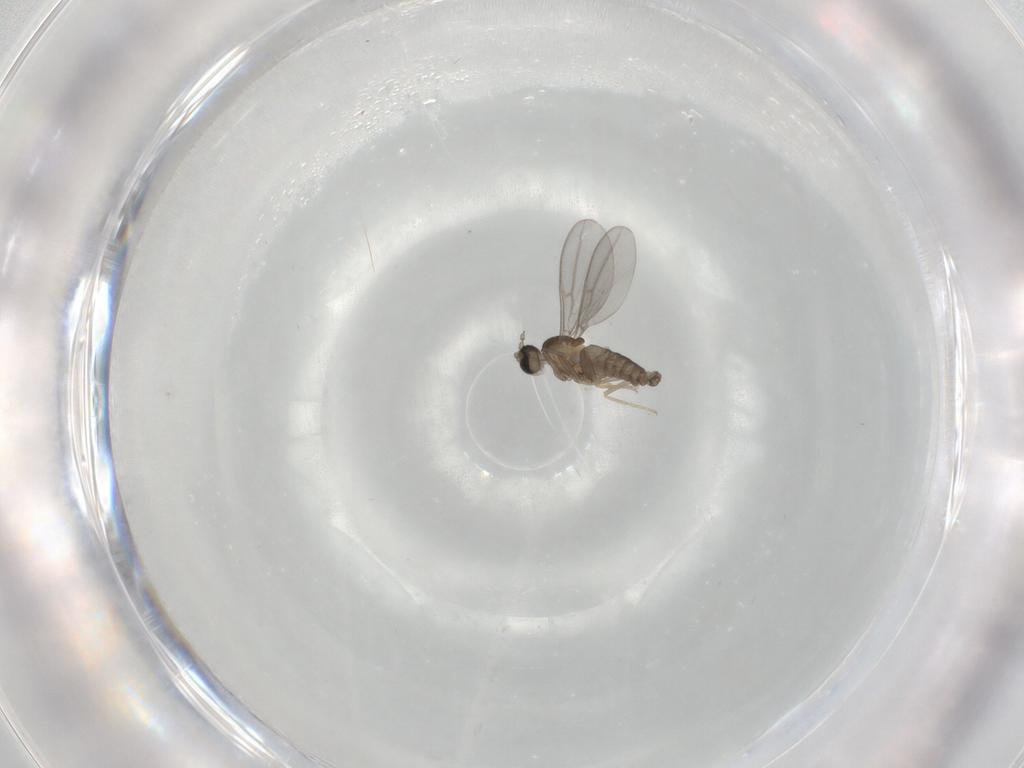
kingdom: Animalia
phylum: Arthropoda
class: Insecta
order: Diptera
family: Chironomidae
